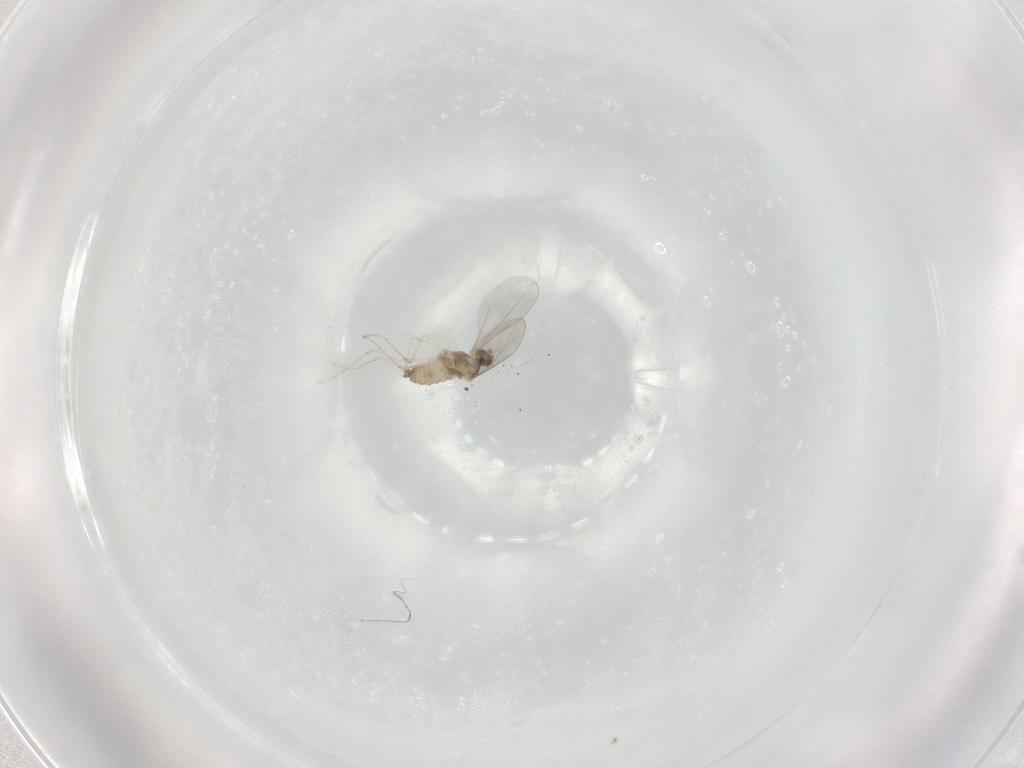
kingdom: Animalia
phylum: Arthropoda
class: Insecta
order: Diptera
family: Cecidomyiidae
